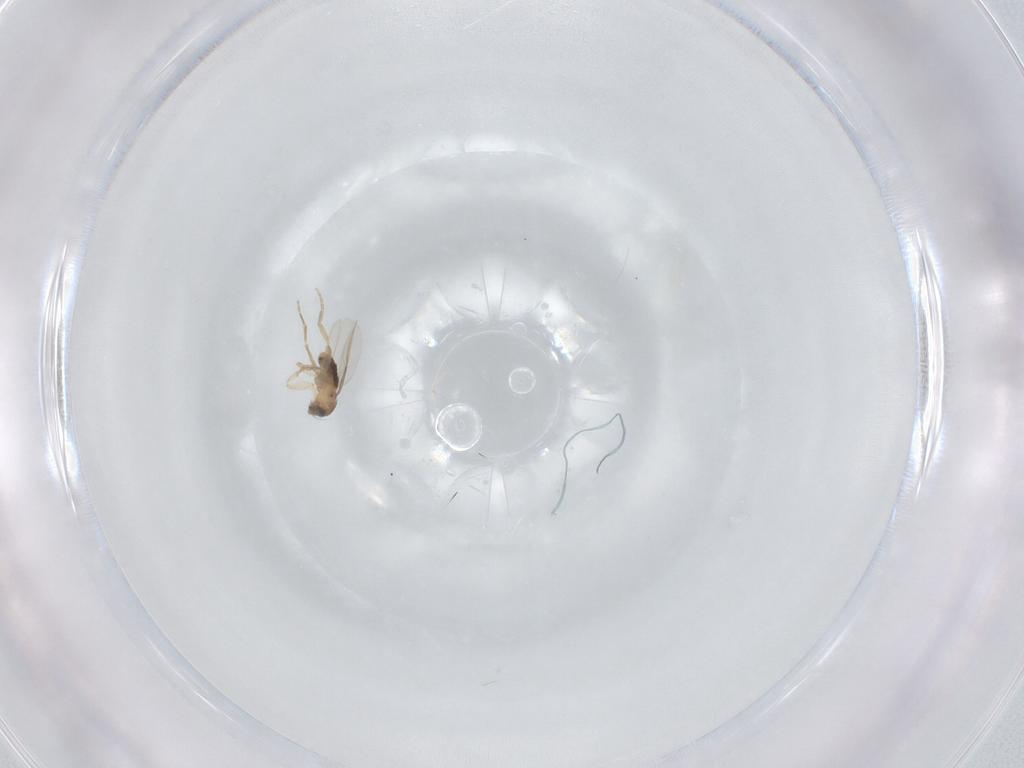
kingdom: Animalia
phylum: Arthropoda
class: Insecta
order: Diptera
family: Phoridae
